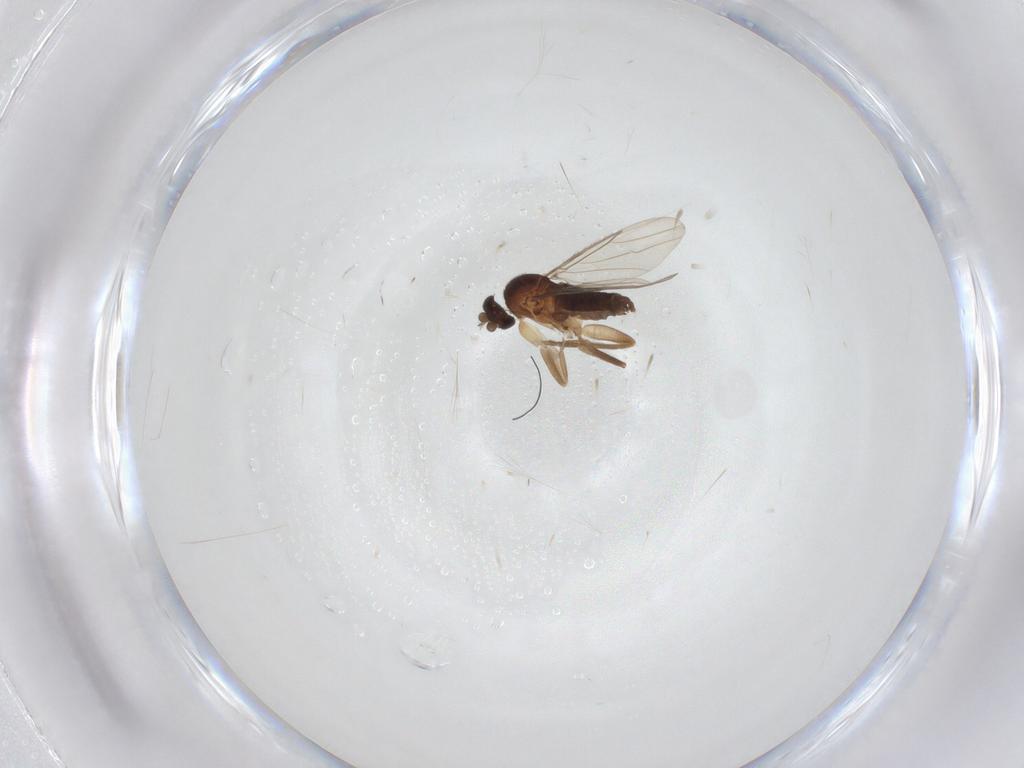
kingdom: Animalia
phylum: Arthropoda
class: Insecta
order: Diptera
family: Phoridae
